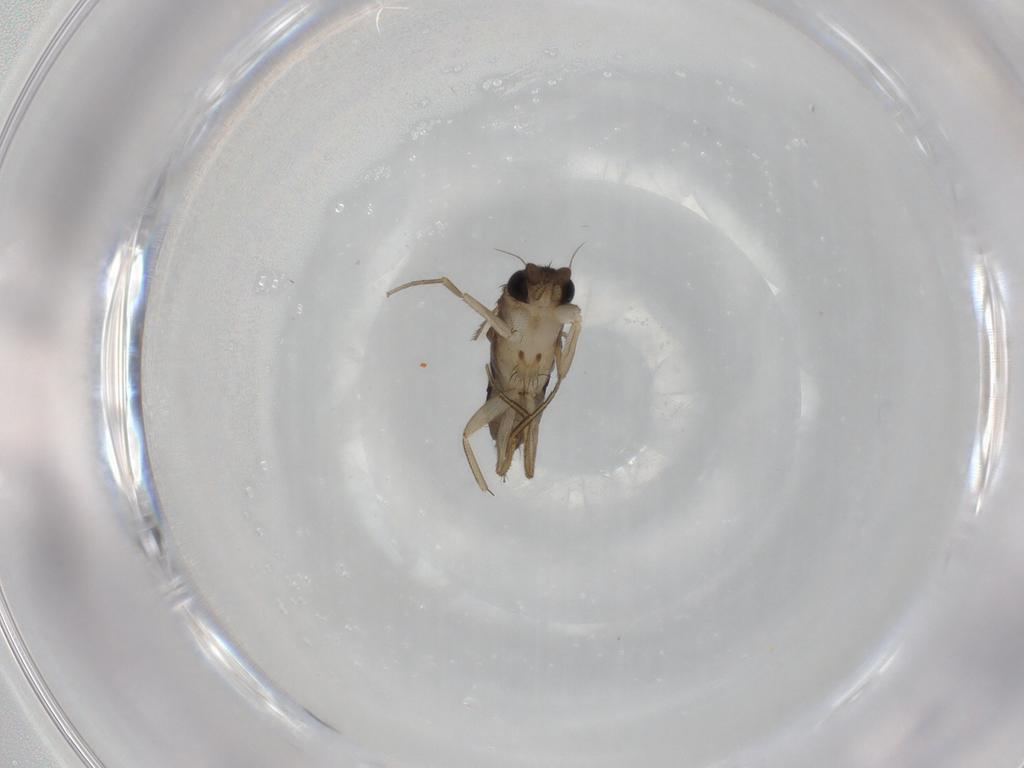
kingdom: Animalia
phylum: Arthropoda
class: Insecta
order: Diptera
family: Phoridae
